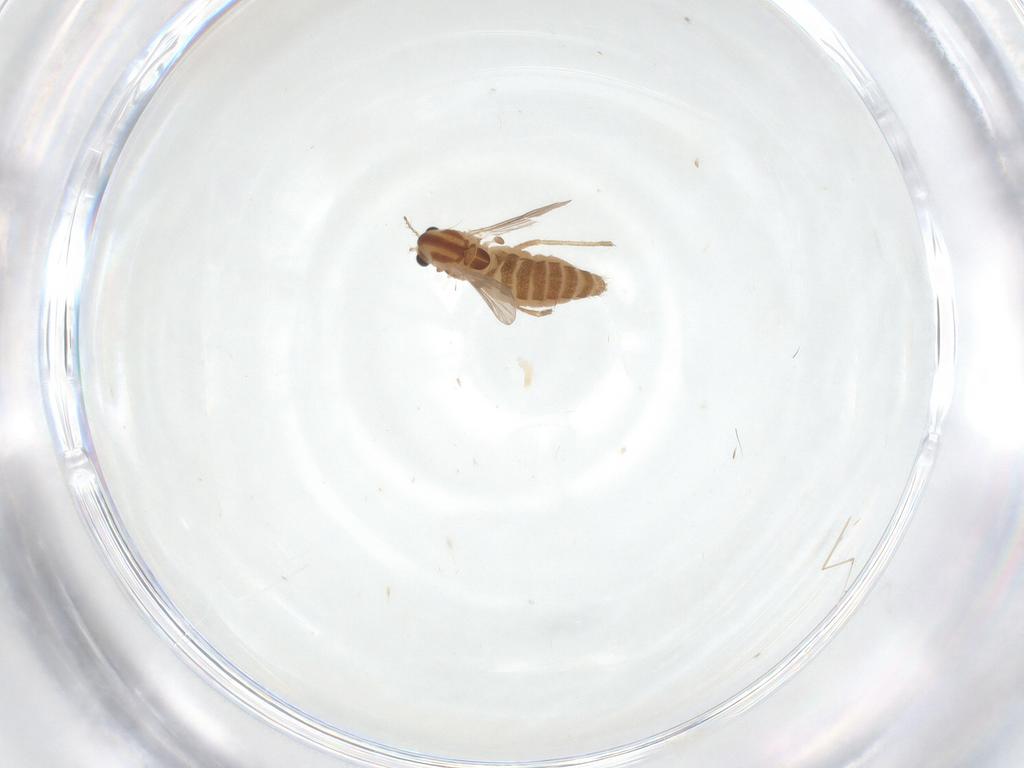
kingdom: Animalia
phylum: Arthropoda
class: Insecta
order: Diptera
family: Chironomidae
